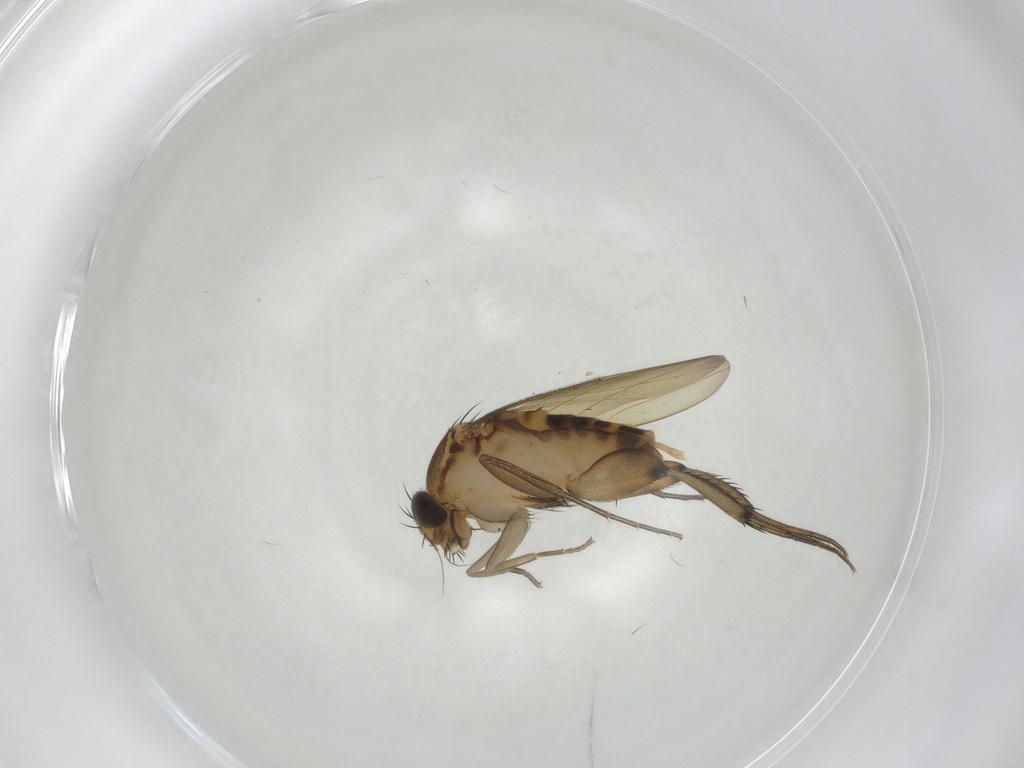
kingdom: Animalia
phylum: Arthropoda
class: Insecta
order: Diptera
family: Phoridae
